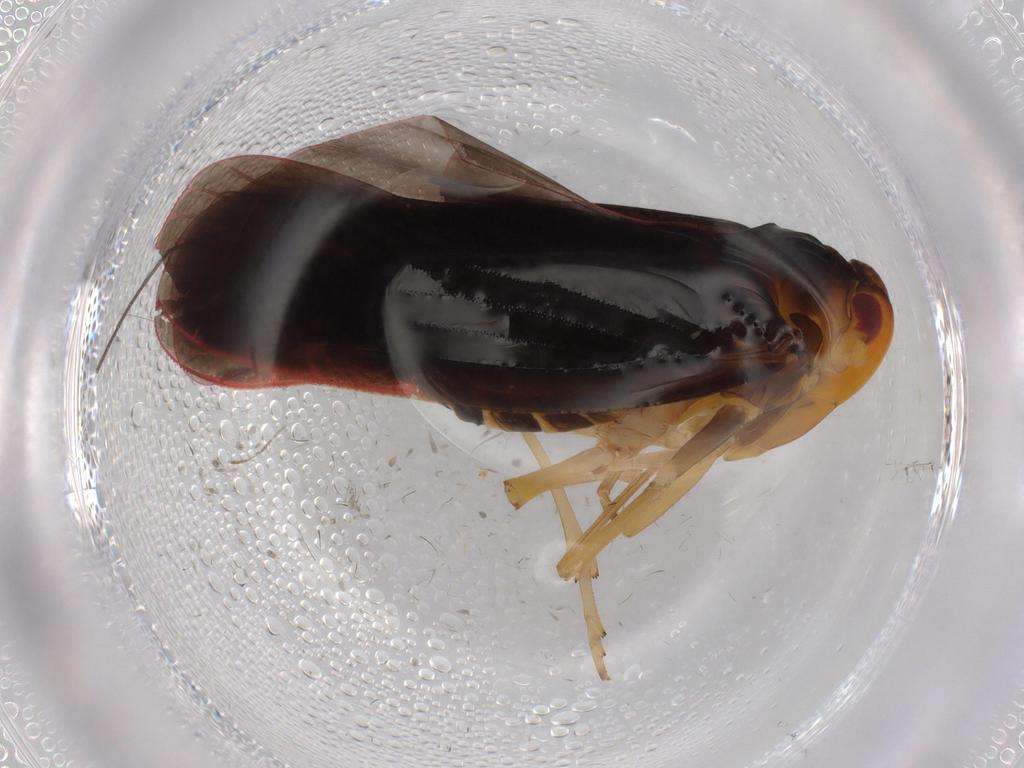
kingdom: Animalia
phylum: Arthropoda
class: Insecta
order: Hemiptera
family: Derbidae
